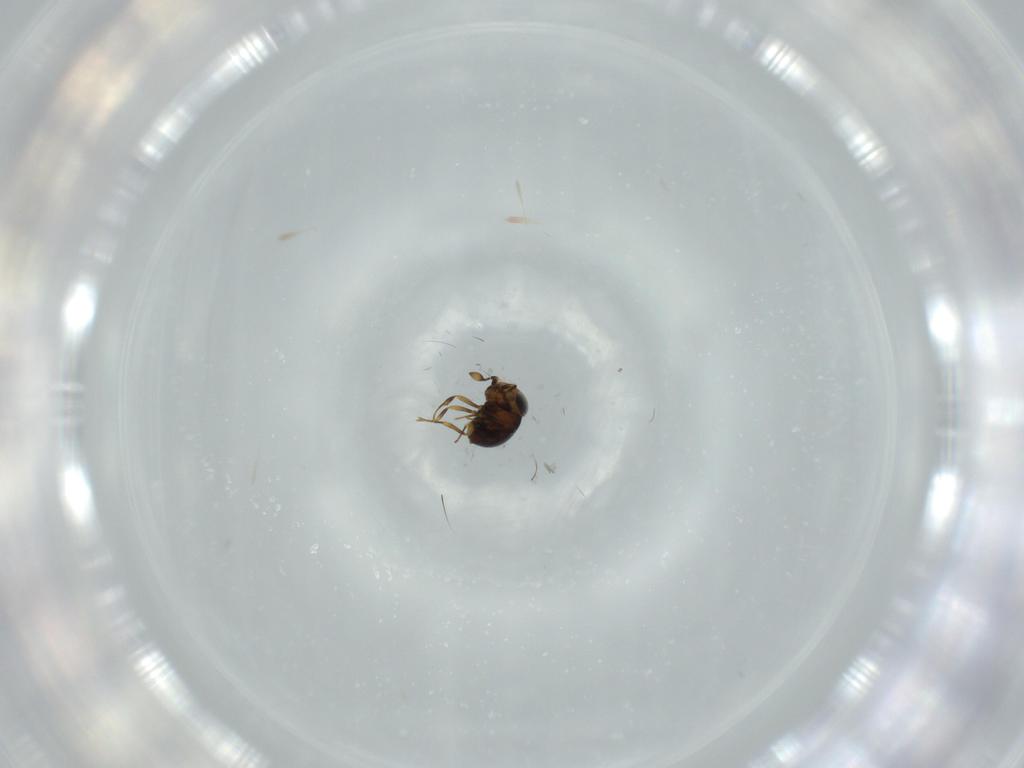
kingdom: Animalia
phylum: Arthropoda
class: Insecta
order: Hymenoptera
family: Scelionidae
